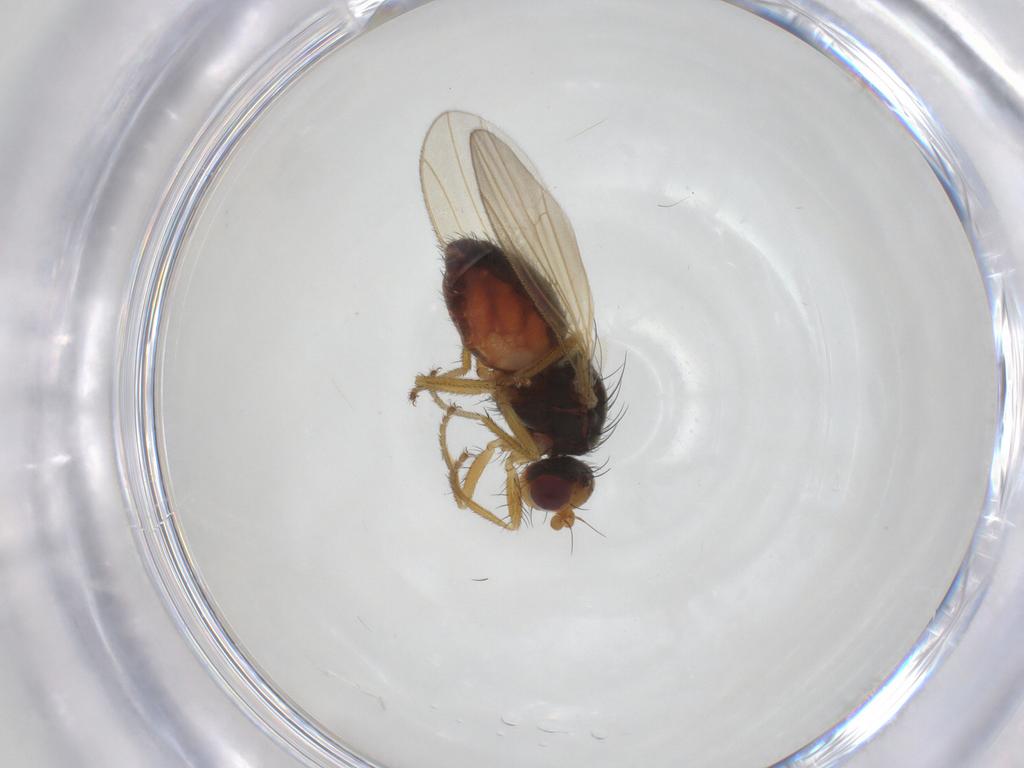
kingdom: Animalia
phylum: Arthropoda
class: Insecta
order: Diptera
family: Heleomyzidae
